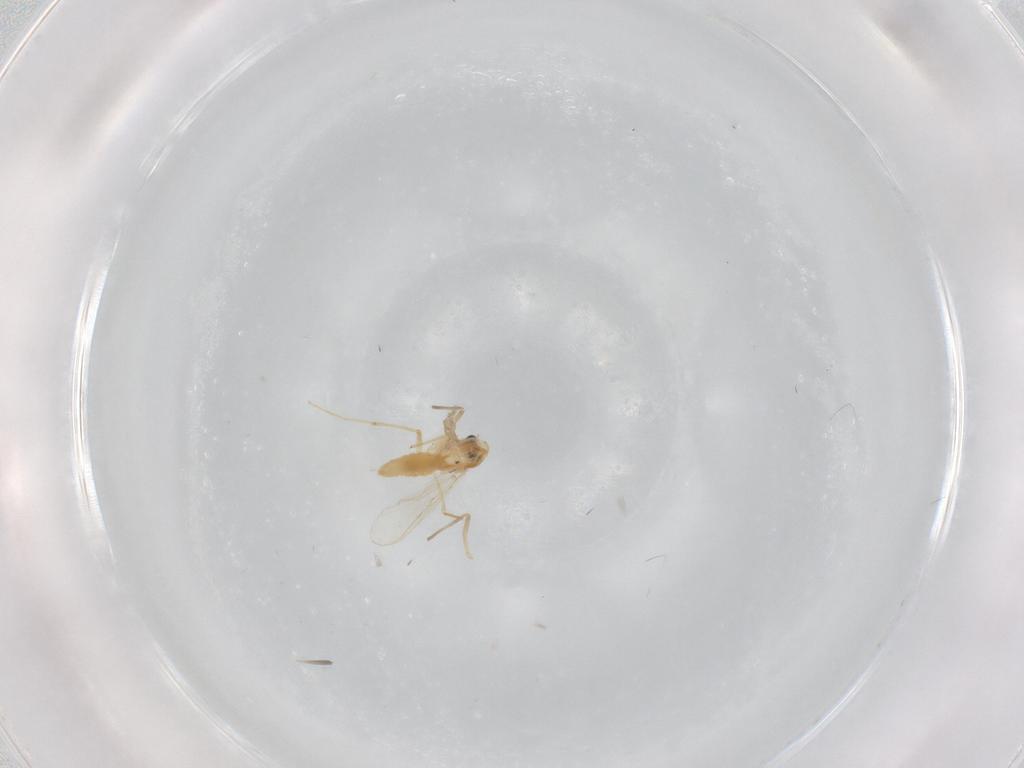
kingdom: Animalia
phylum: Arthropoda
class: Insecta
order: Diptera
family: Chironomidae
